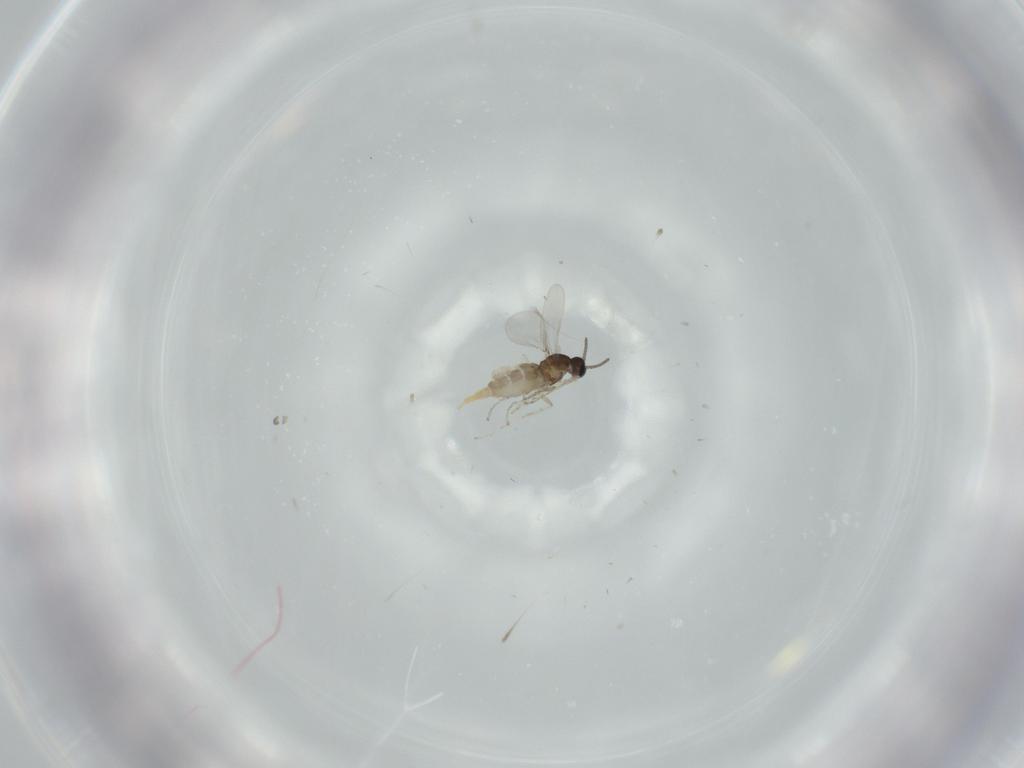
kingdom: Animalia
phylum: Arthropoda
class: Insecta
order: Diptera
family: Cecidomyiidae
